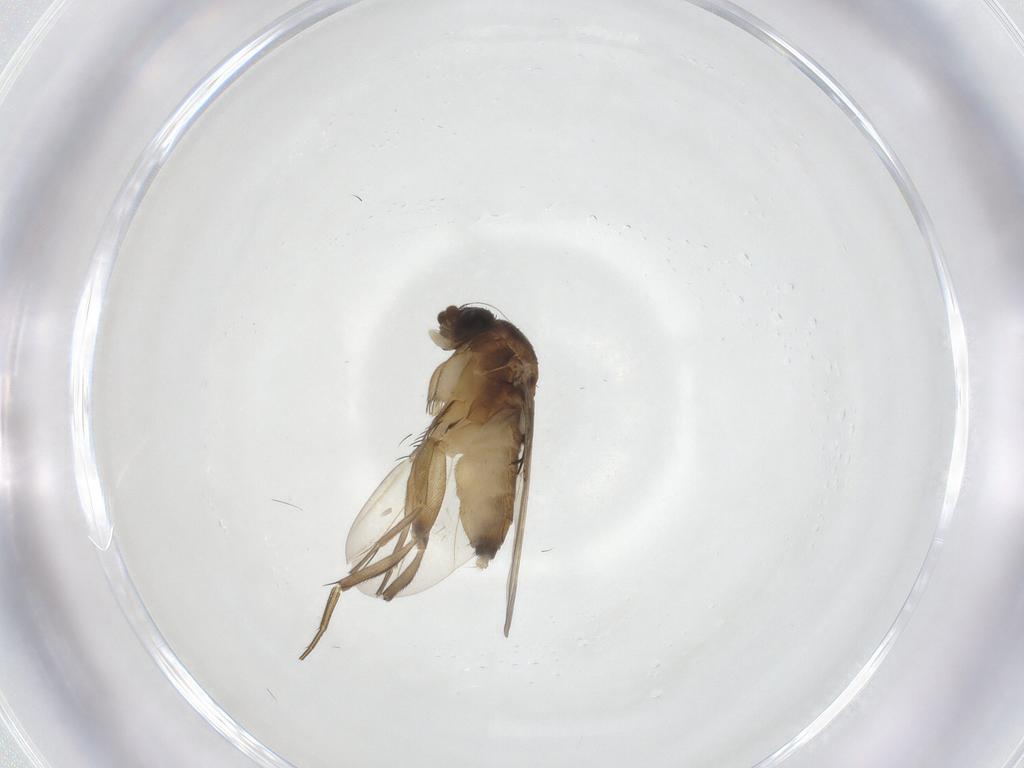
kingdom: Animalia
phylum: Arthropoda
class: Insecta
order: Diptera
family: Asilidae
